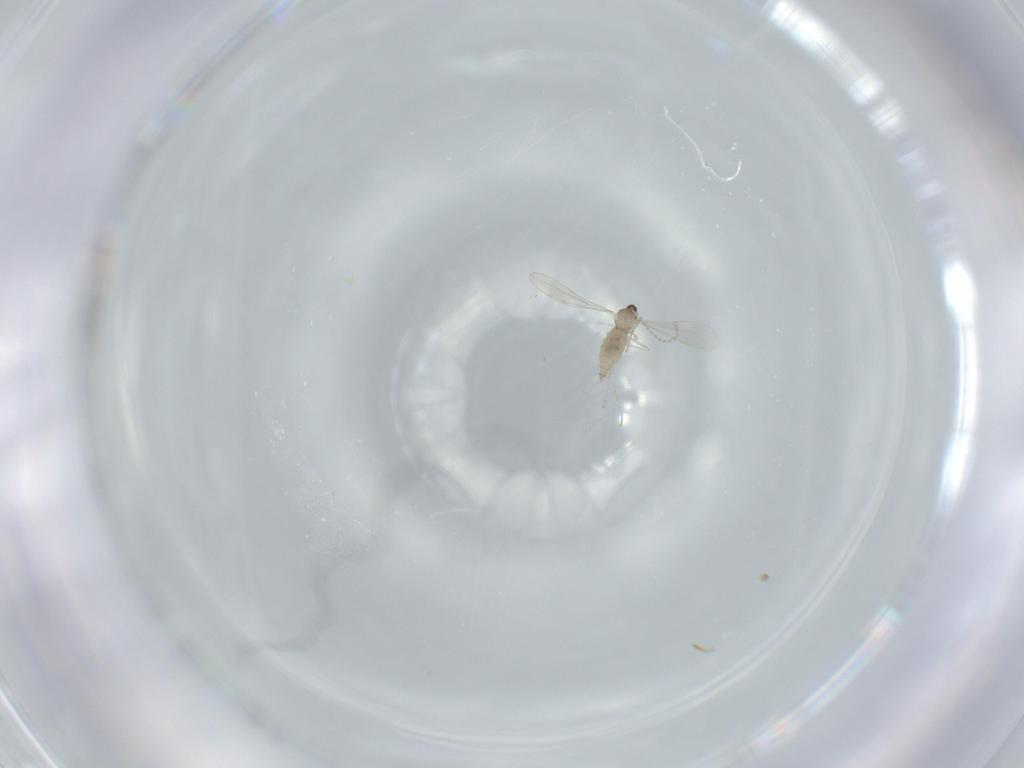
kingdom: Animalia
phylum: Arthropoda
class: Insecta
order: Diptera
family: Cecidomyiidae
